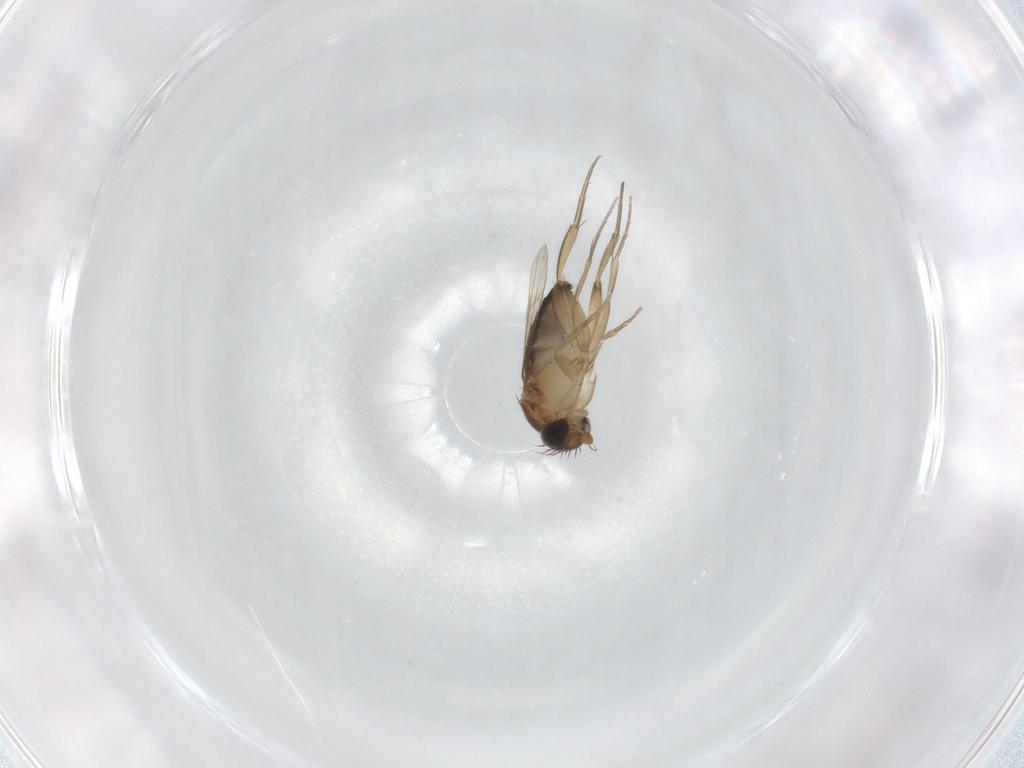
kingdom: Animalia
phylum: Arthropoda
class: Insecta
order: Diptera
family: Phoridae
